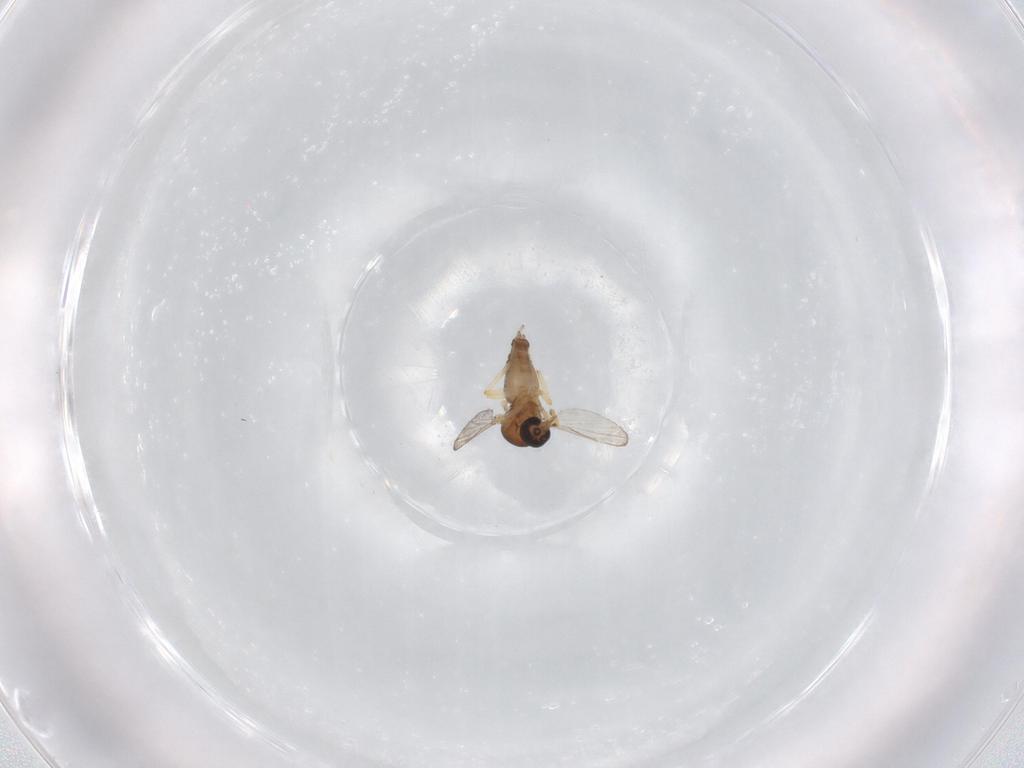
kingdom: Animalia
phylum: Arthropoda
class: Insecta
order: Diptera
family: Ceratopogonidae
